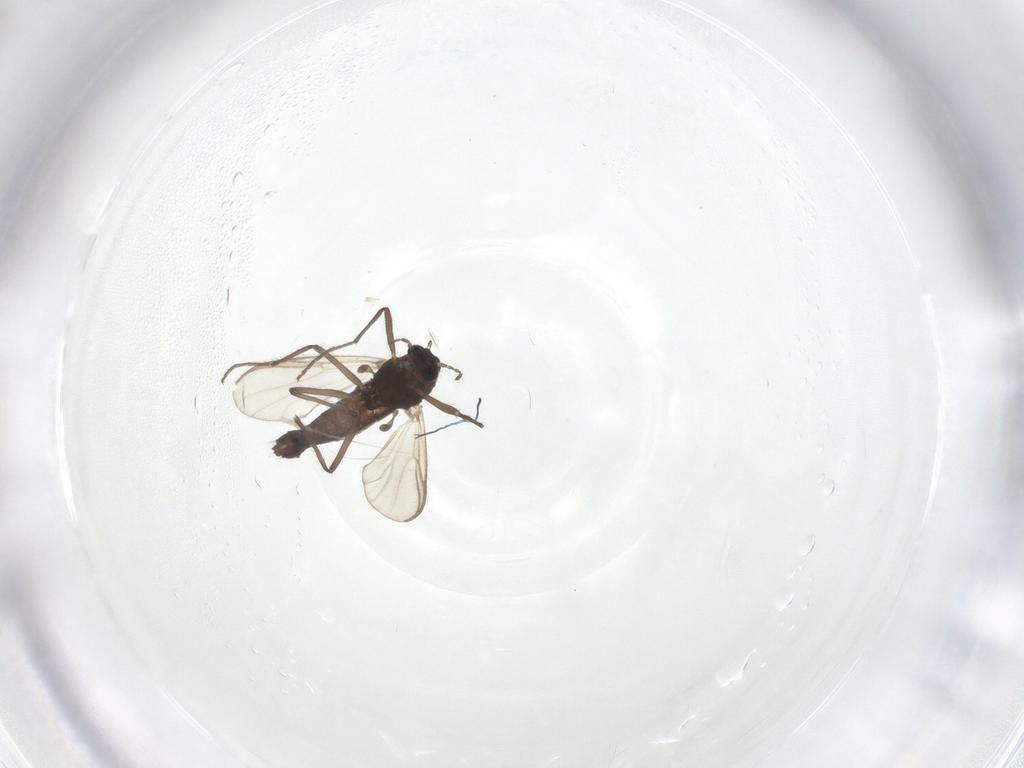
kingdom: Animalia
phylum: Arthropoda
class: Insecta
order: Diptera
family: Chironomidae
